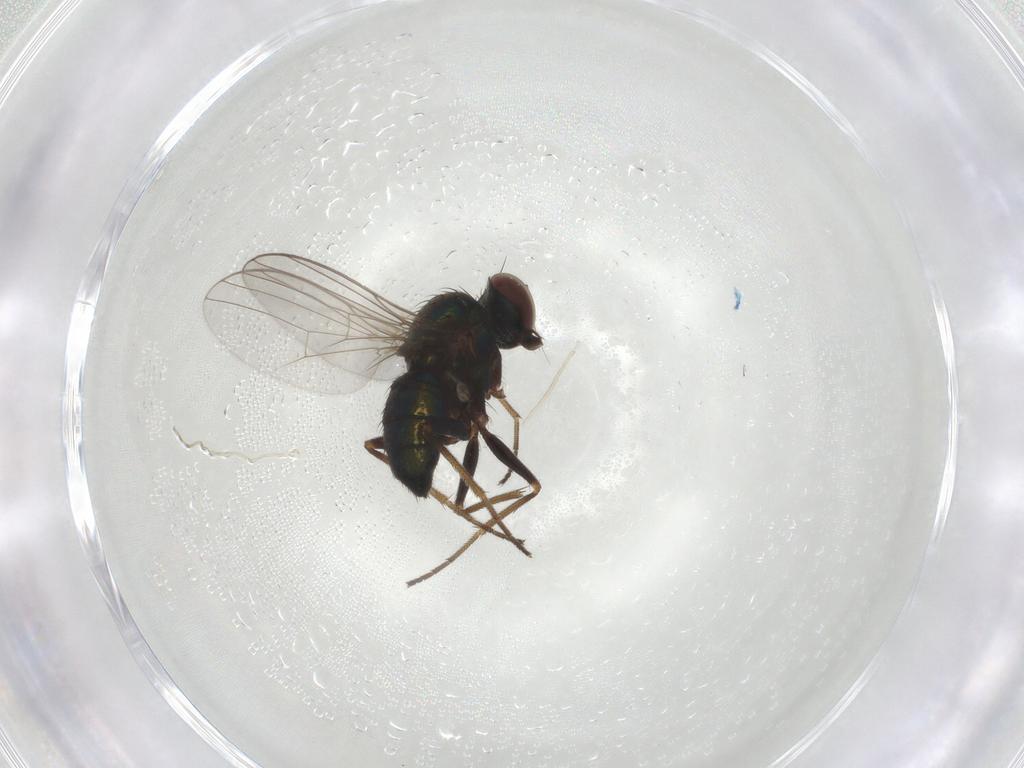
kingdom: Animalia
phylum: Arthropoda
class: Insecta
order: Diptera
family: Dolichopodidae
